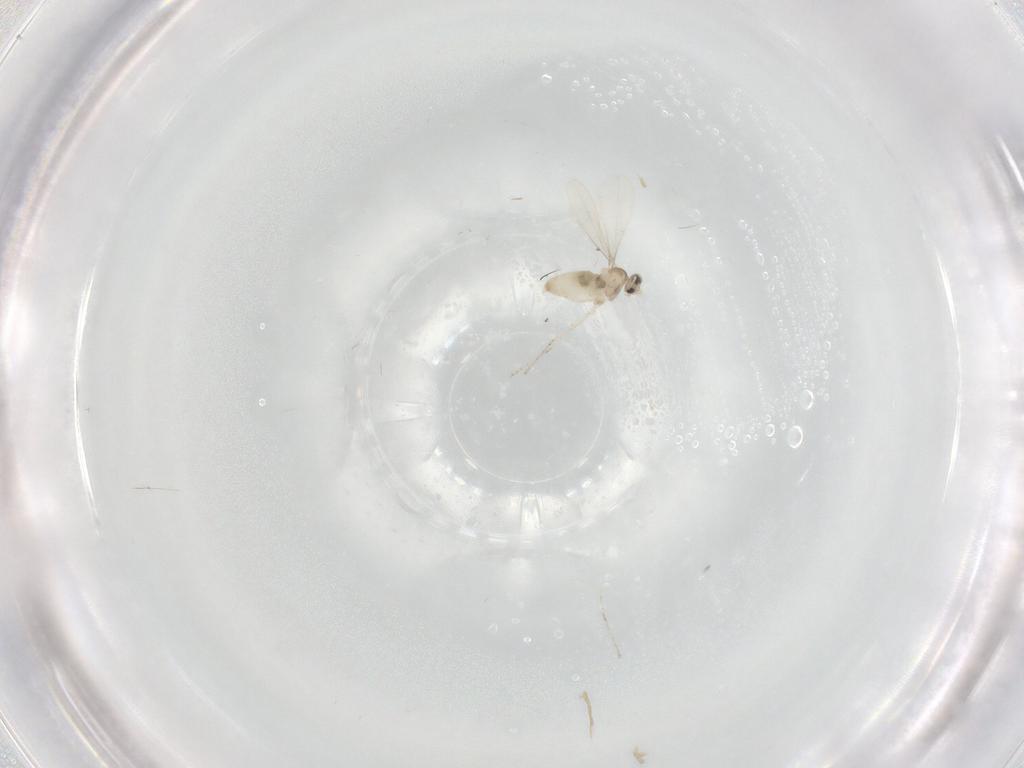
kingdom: Animalia
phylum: Arthropoda
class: Insecta
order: Diptera
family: Cecidomyiidae
